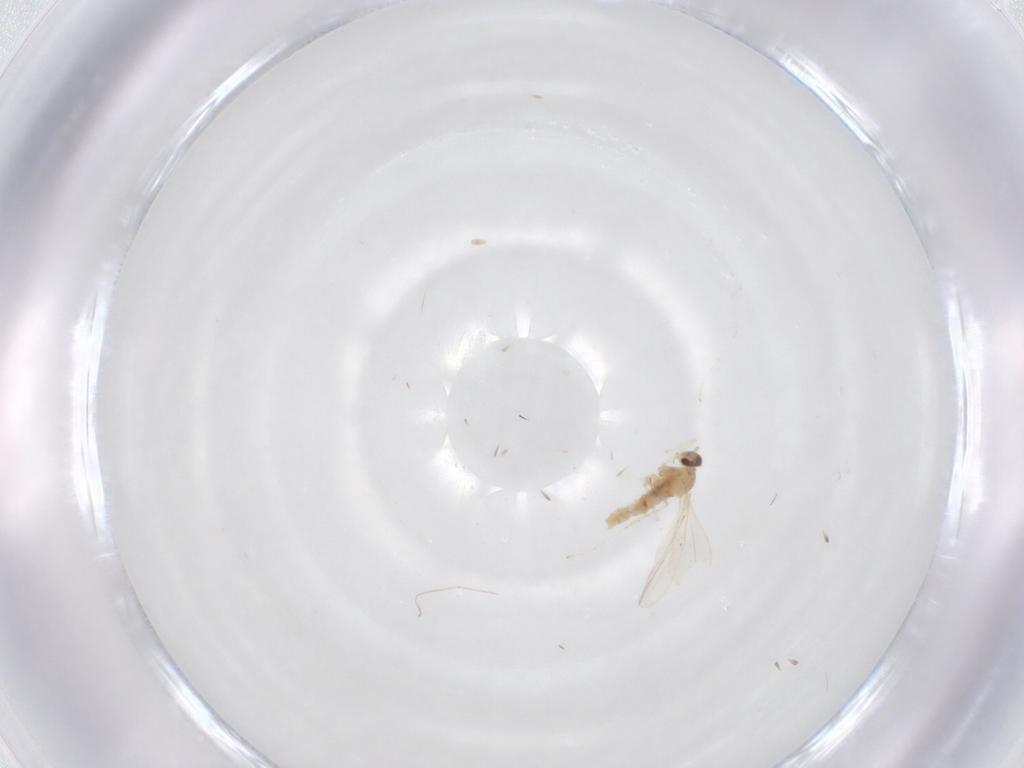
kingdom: Animalia
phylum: Arthropoda
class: Insecta
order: Diptera
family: Cecidomyiidae
